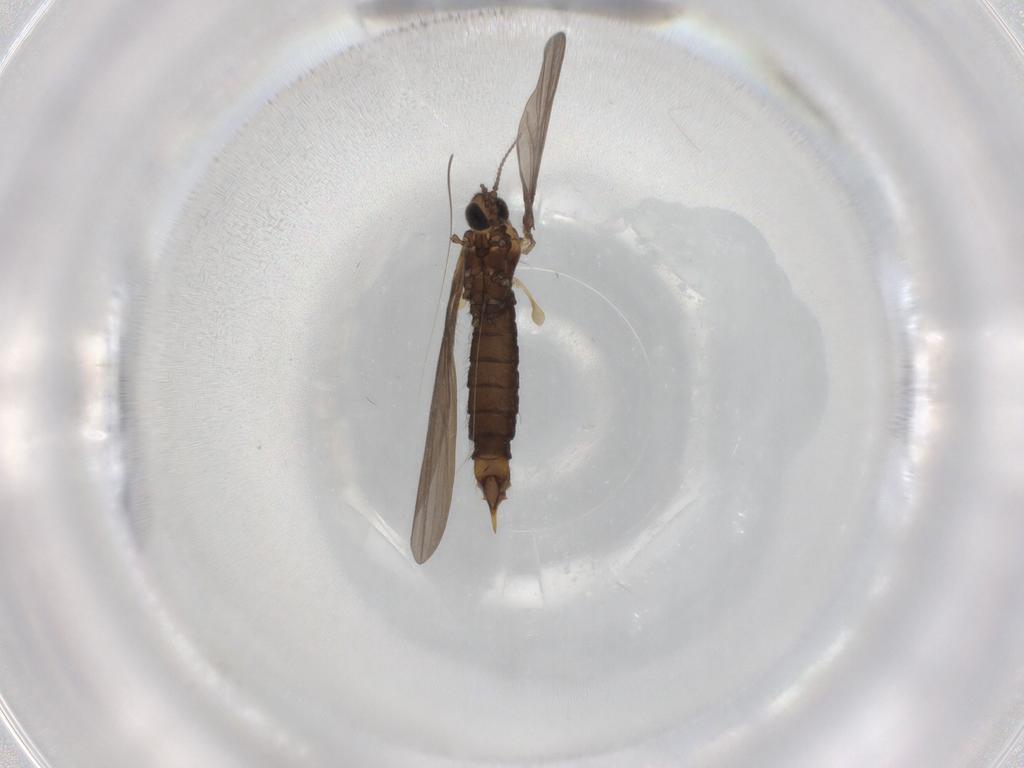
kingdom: Animalia
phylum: Arthropoda
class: Insecta
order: Diptera
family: Limoniidae
